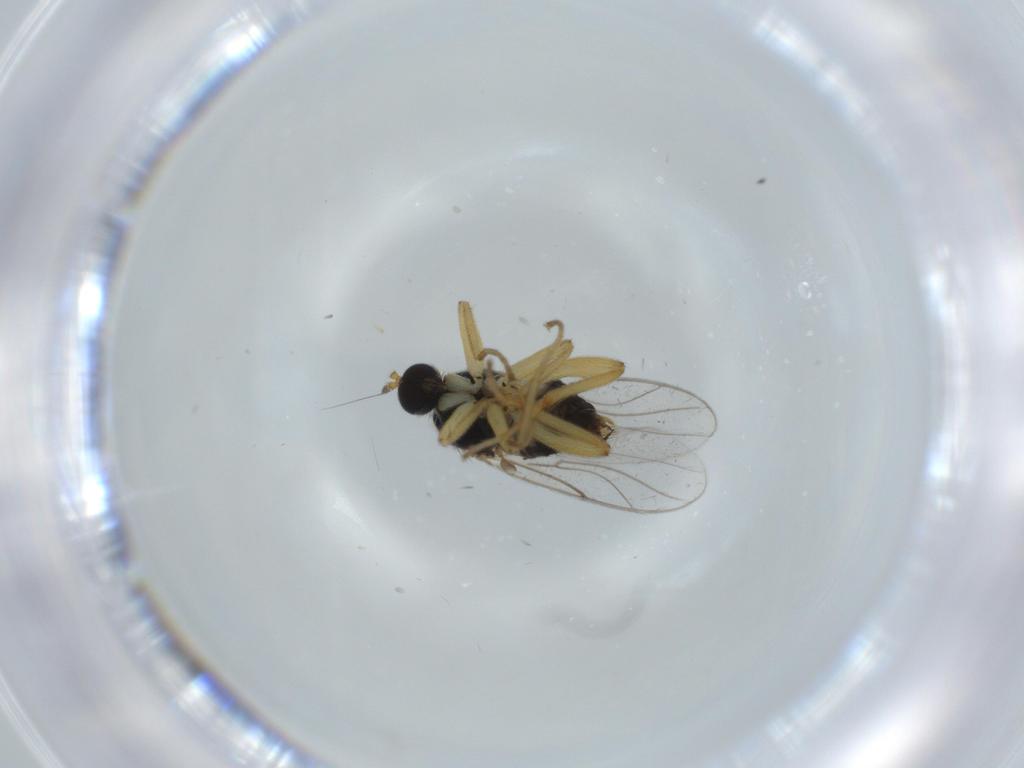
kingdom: Animalia
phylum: Arthropoda
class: Insecta
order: Diptera
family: Hybotidae
